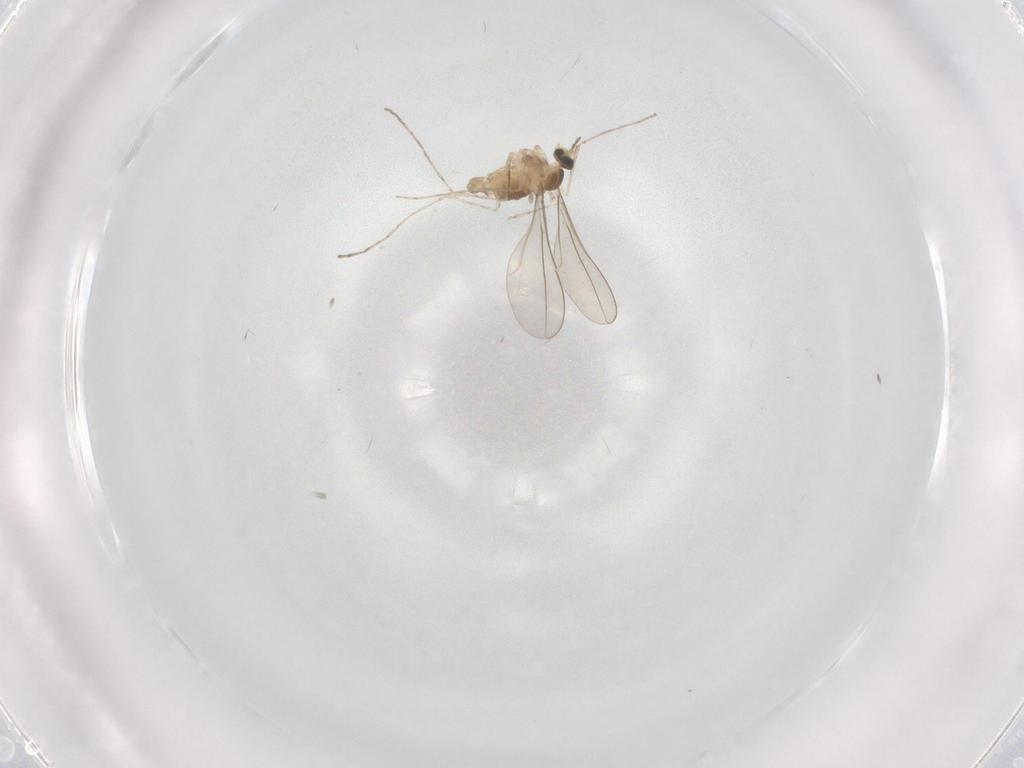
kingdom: Animalia
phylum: Arthropoda
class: Insecta
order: Diptera
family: Cecidomyiidae
